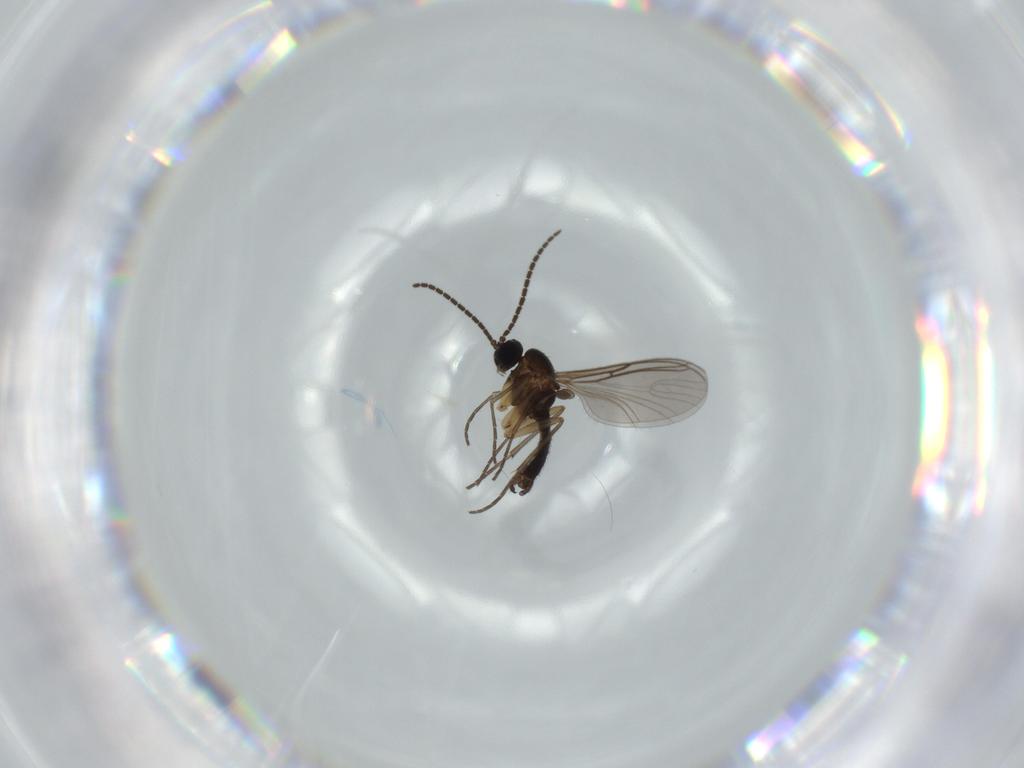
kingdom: Animalia
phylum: Arthropoda
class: Insecta
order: Diptera
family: Sciaridae
